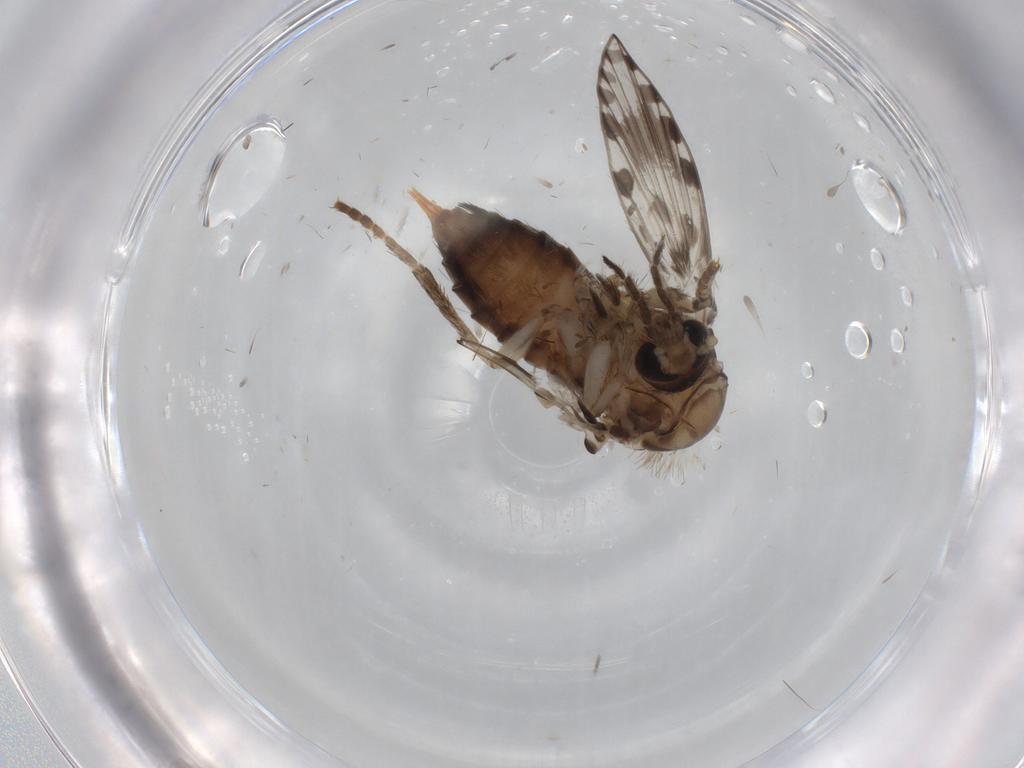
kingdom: Animalia
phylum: Arthropoda
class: Insecta
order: Diptera
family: Psychodidae
